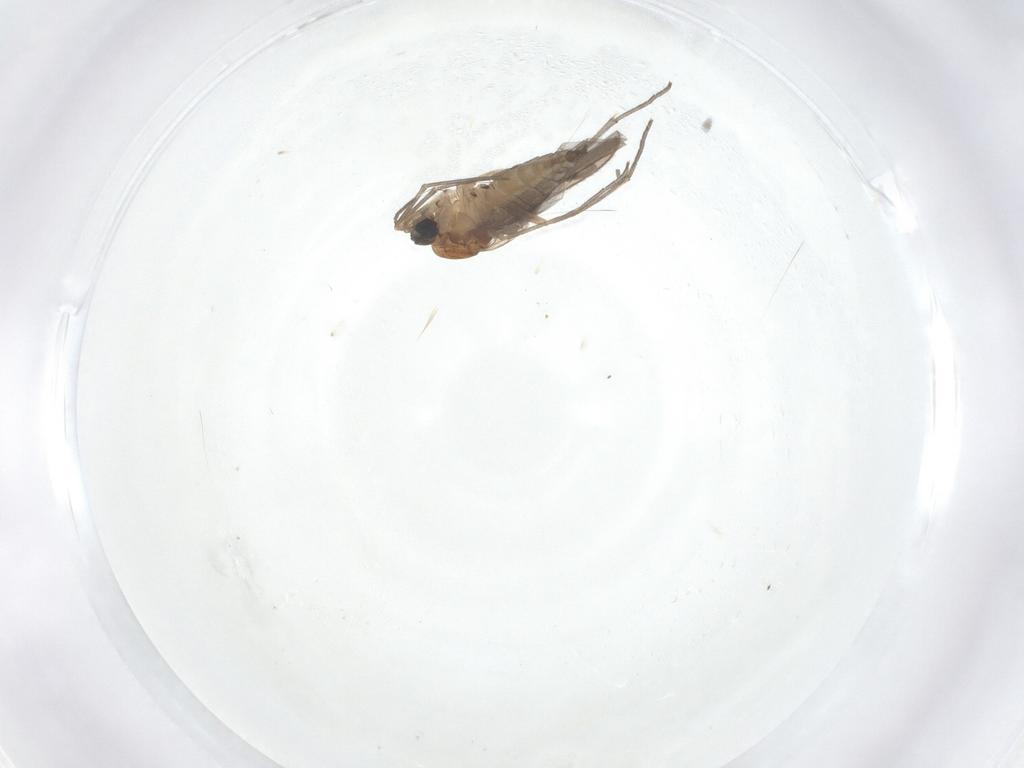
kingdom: Animalia
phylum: Arthropoda
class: Insecta
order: Diptera
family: Sciaridae
